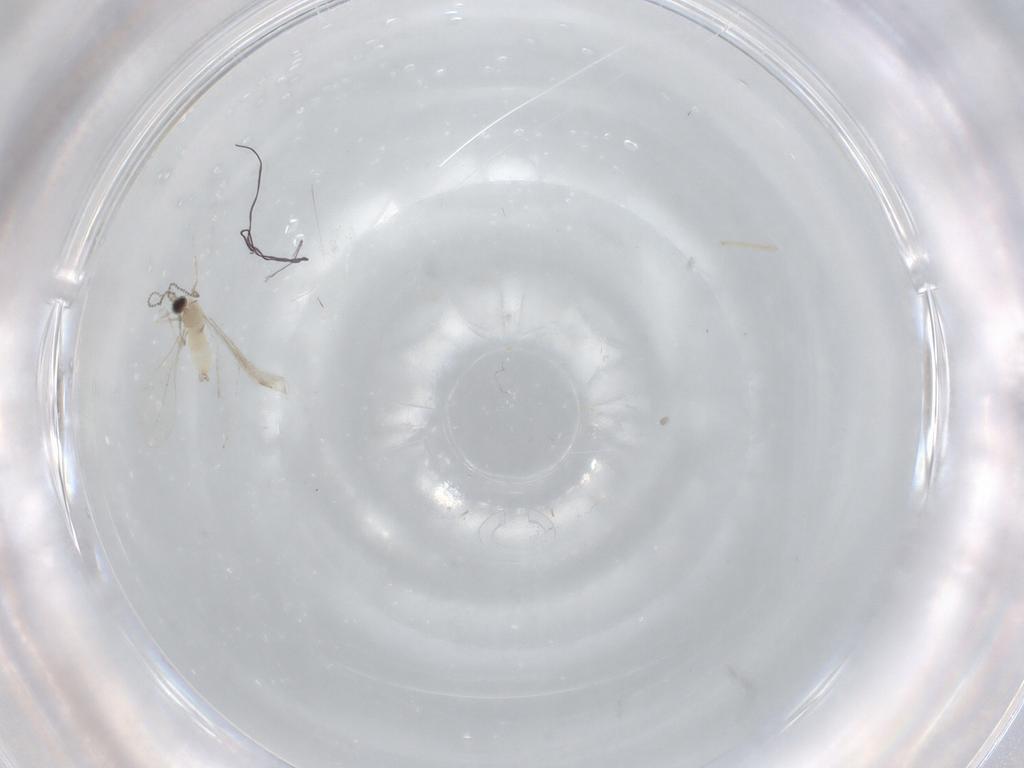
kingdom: Animalia
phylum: Arthropoda
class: Insecta
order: Diptera
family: Cecidomyiidae
